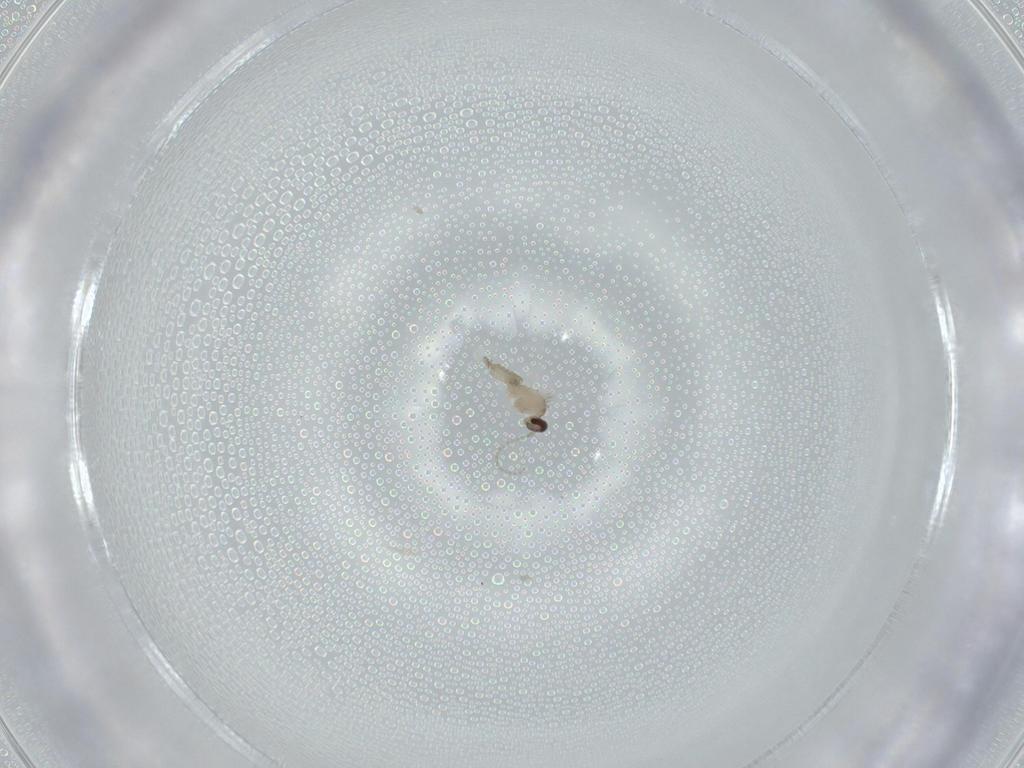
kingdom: Animalia
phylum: Arthropoda
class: Insecta
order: Diptera
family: Cecidomyiidae
